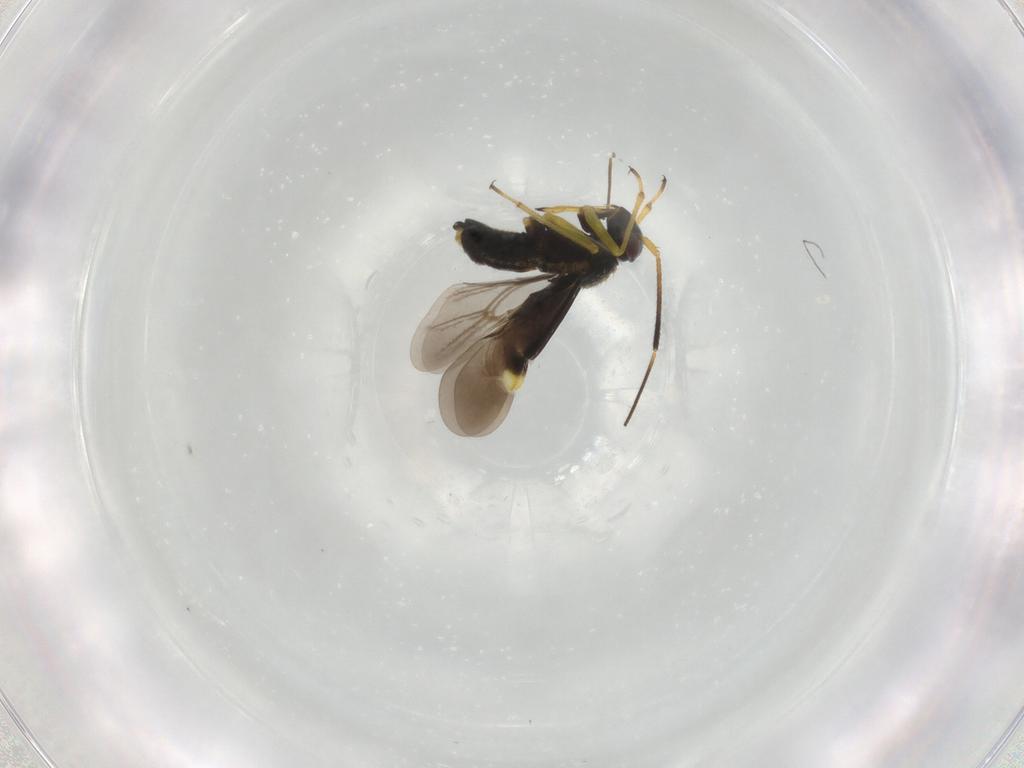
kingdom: Animalia
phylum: Arthropoda
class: Insecta
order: Hemiptera
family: Miridae
